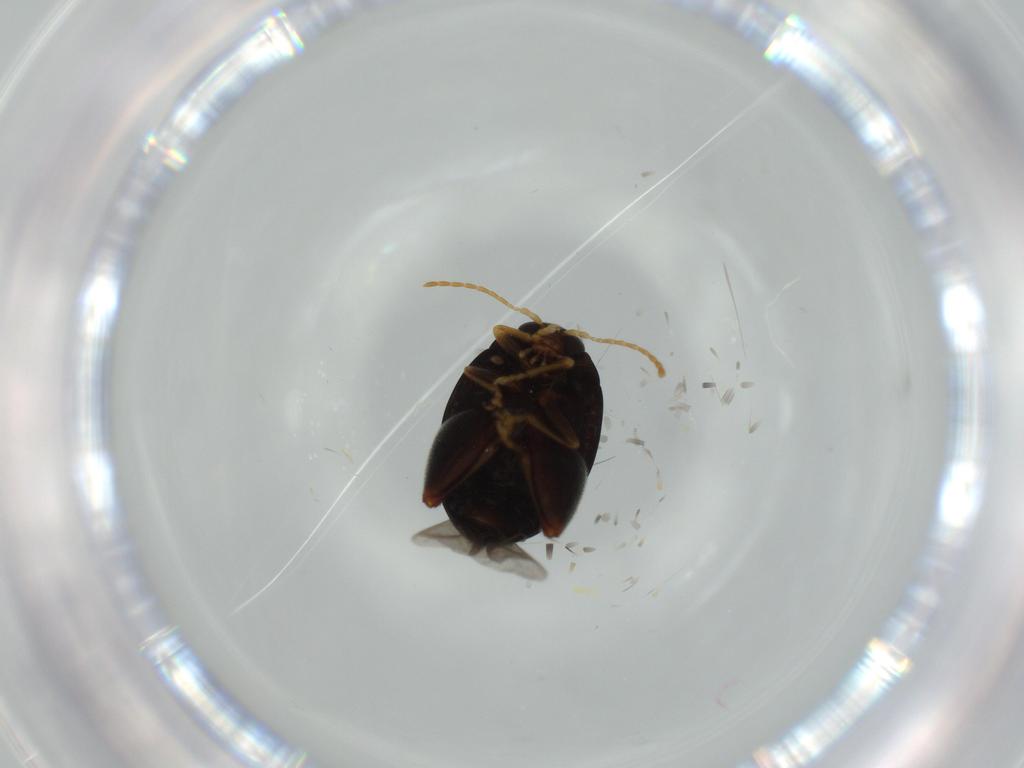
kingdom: Animalia
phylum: Arthropoda
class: Insecta
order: Coleoptera
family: Chrysomelidae
